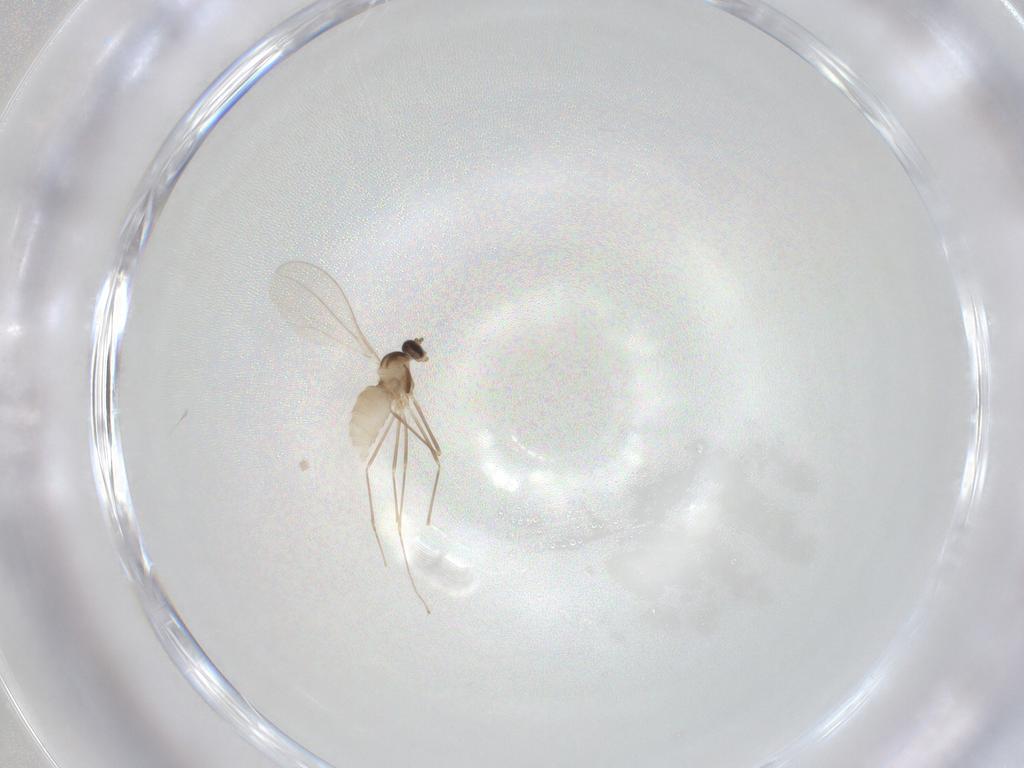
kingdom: Animalia
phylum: Arthropoda
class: Insecta
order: Diptera
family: Cecidomyiidae
